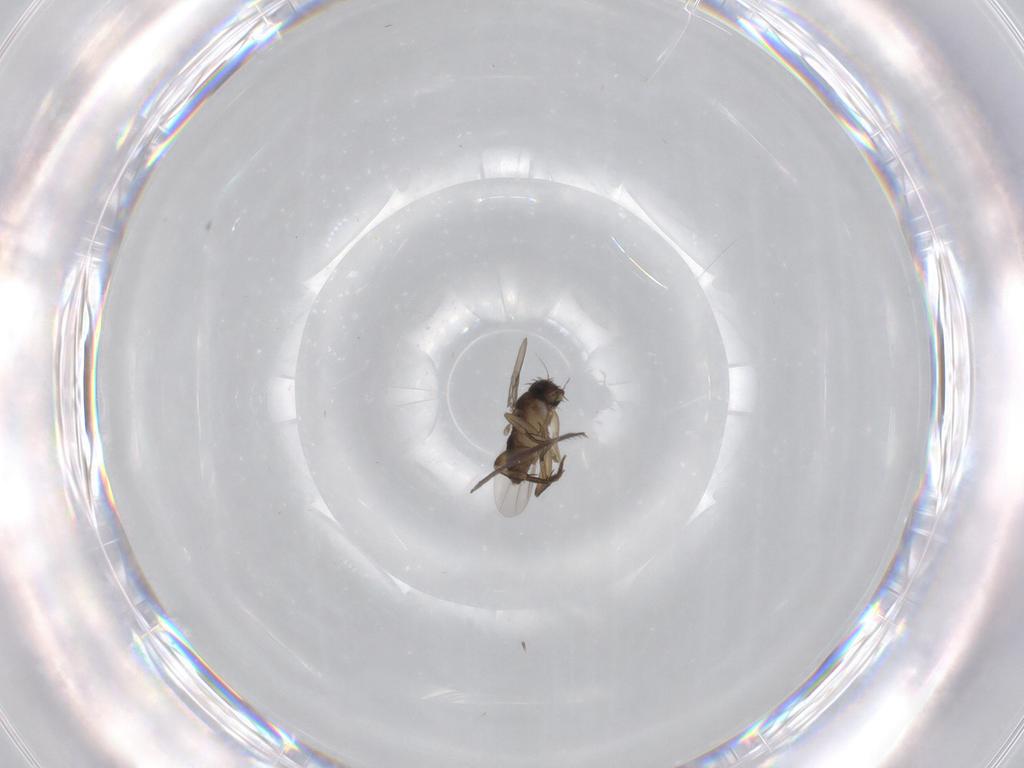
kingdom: Animalia
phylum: Arthropoda
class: Insecta
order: Diptera
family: Phoridae
